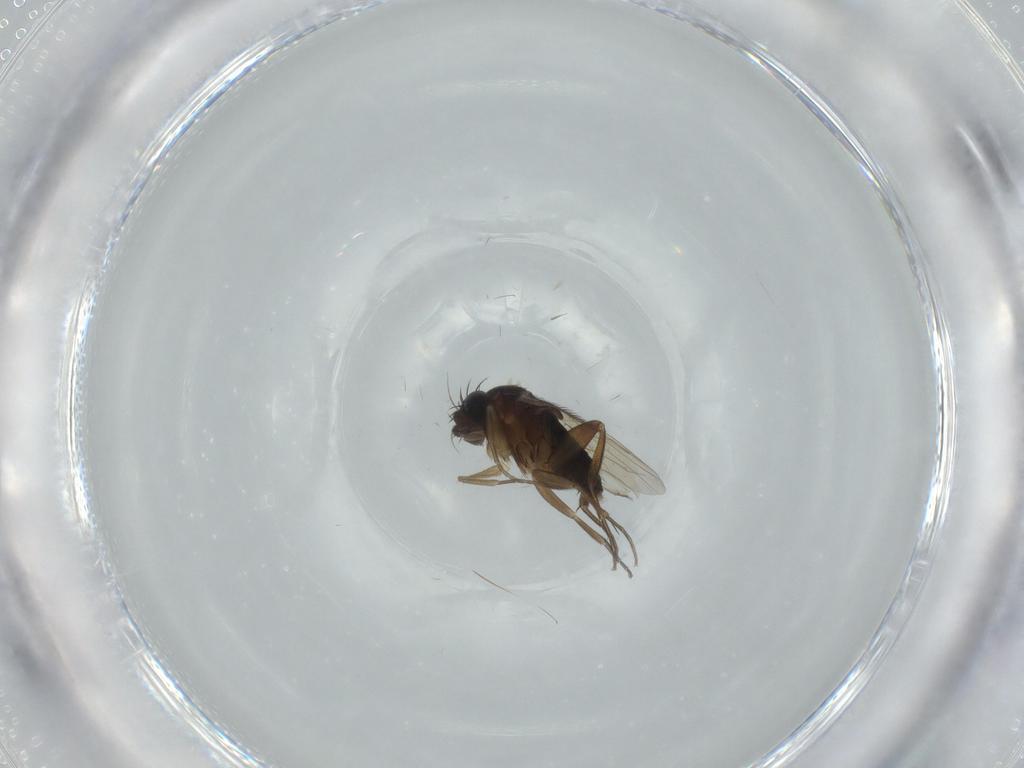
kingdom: Animalia
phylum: Arthropoda
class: Insecta
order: Diptera
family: Phoridae
